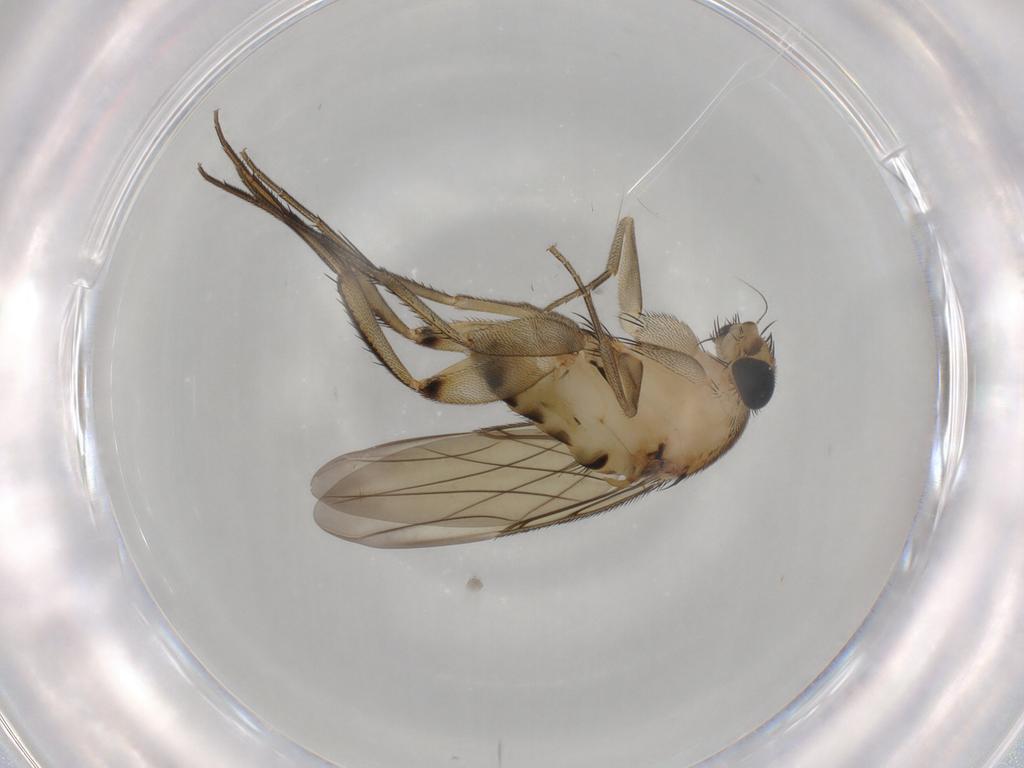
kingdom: Animalia
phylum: Arthropoda
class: Insecta
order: Diptera
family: Phoridae
